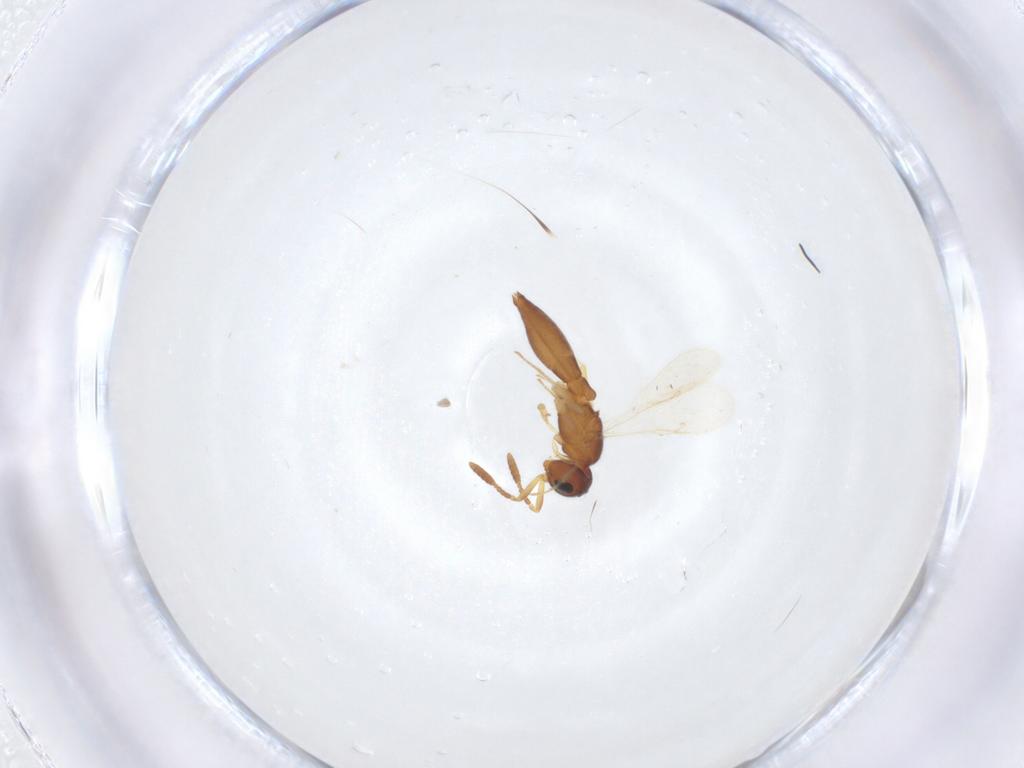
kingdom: Animalia
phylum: Arthropoda
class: Insecta
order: Hymenoptera
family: Scelionidae
